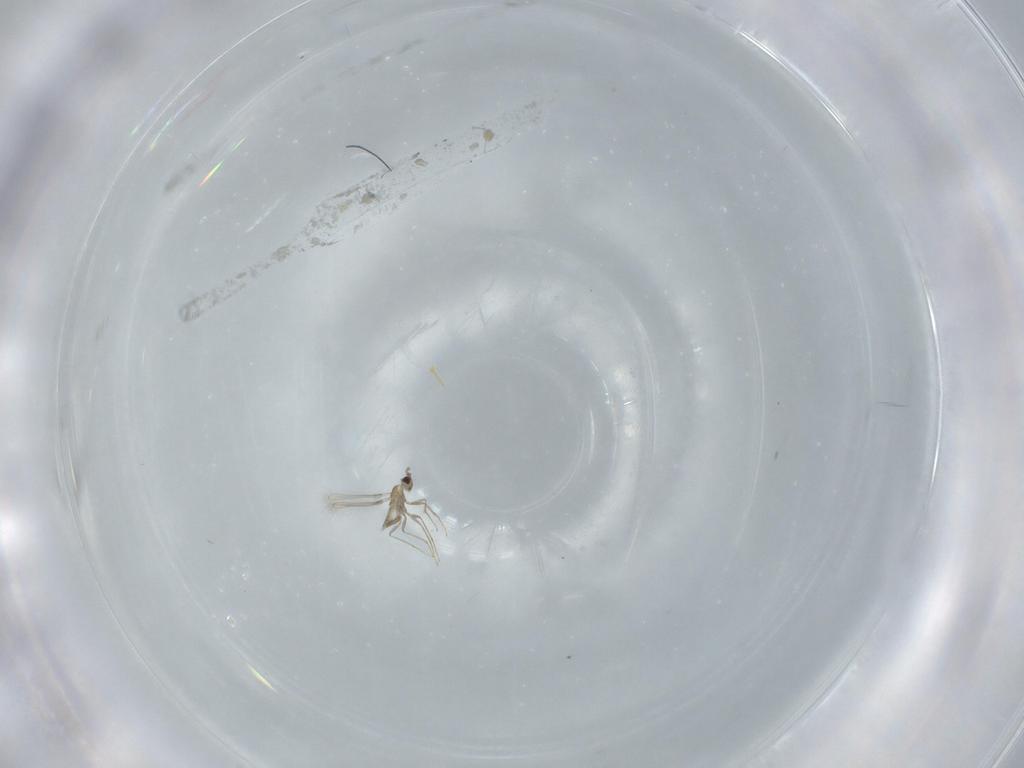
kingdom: Animalia
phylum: Arthropoda
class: Insecta
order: Hymenoptera
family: Mymaridae
